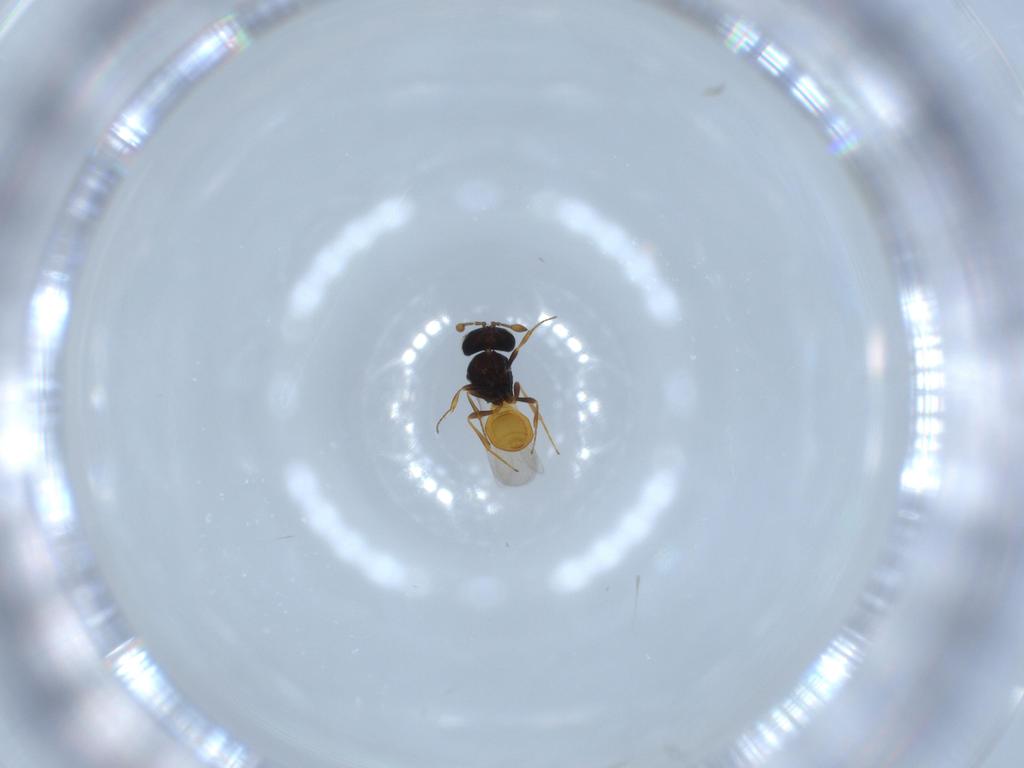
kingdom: Animalia
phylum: Arthropoda
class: Insecta
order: Hymenoptera
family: Scelionidae
